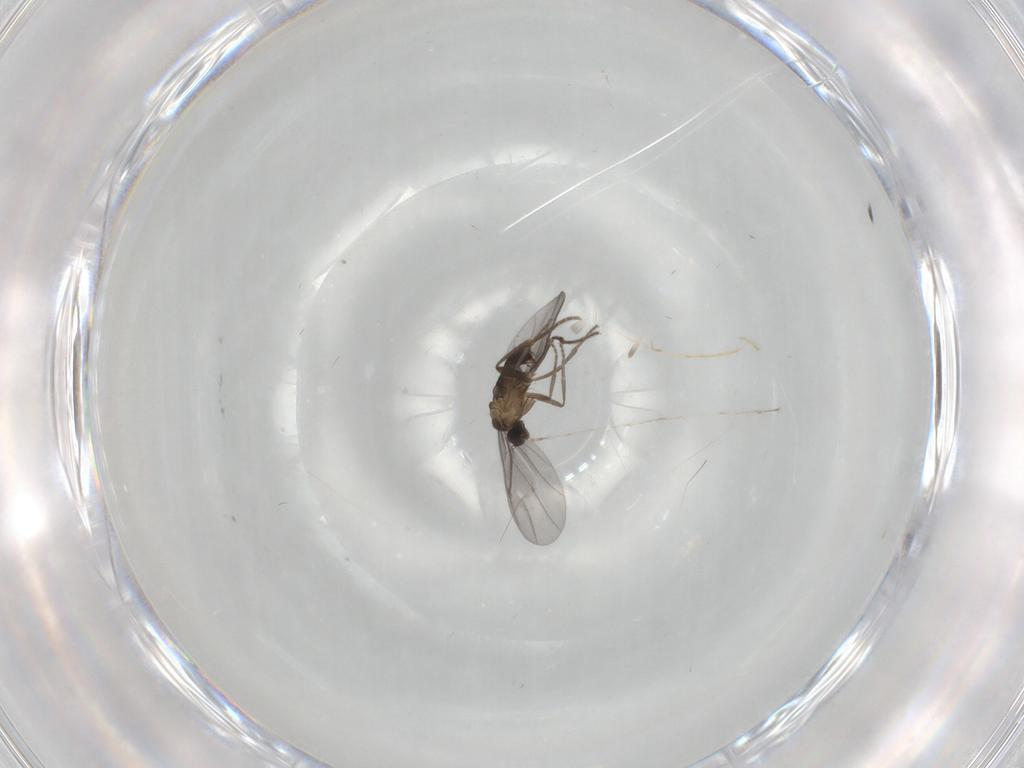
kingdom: Animalia
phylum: Arthropoda
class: Insecta
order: Diptera
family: Phoridae
